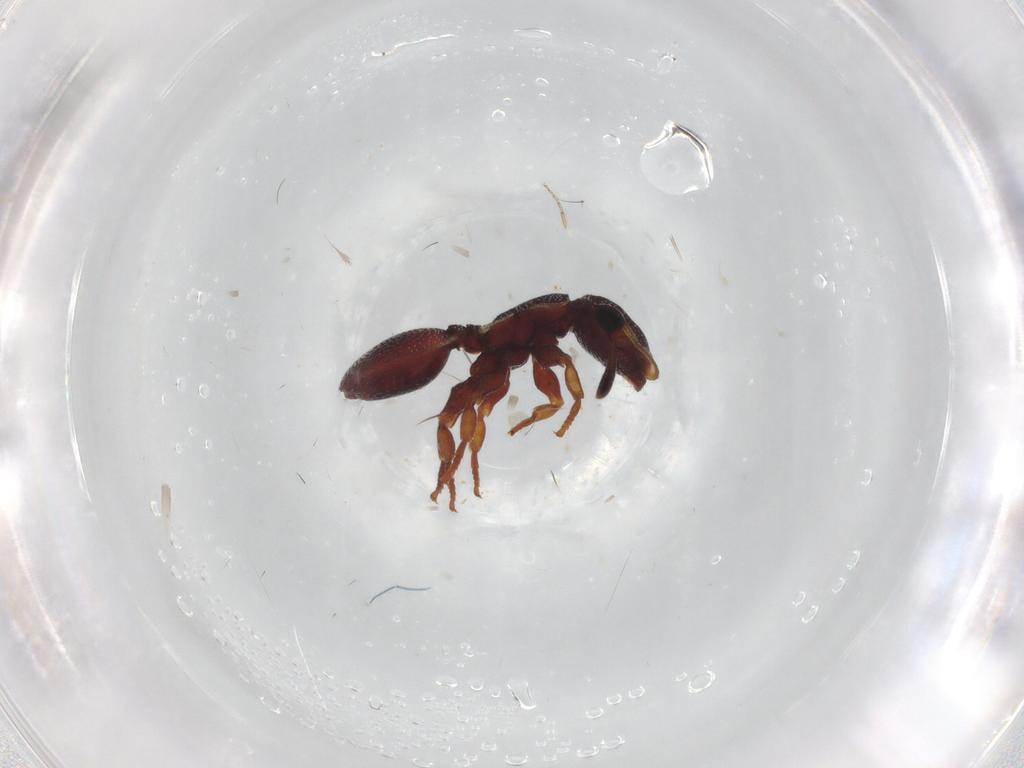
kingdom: Animalia
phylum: Arthropoda
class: Insecta
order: Hymenoptera
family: Formicidae
